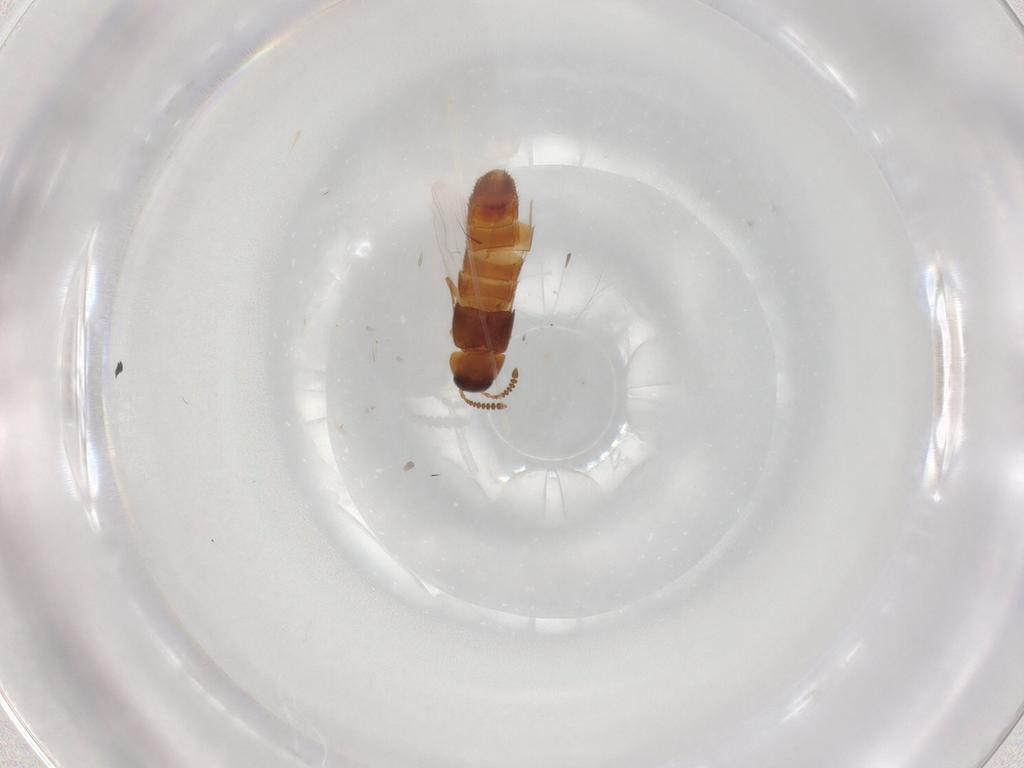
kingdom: Animalia
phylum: Arthropoda
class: Insecta
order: Coleoptera
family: Staphylinidae
